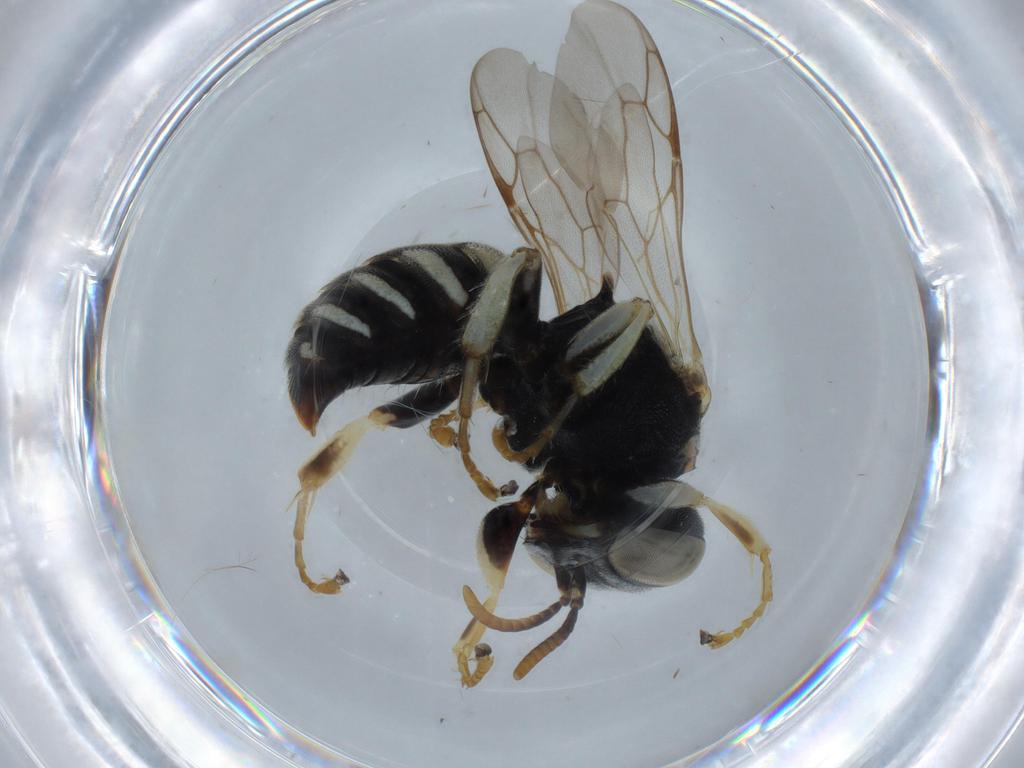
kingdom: Animalia
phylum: Arthropoda
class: Insecta
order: Hymenoptera
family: Crabronidae
